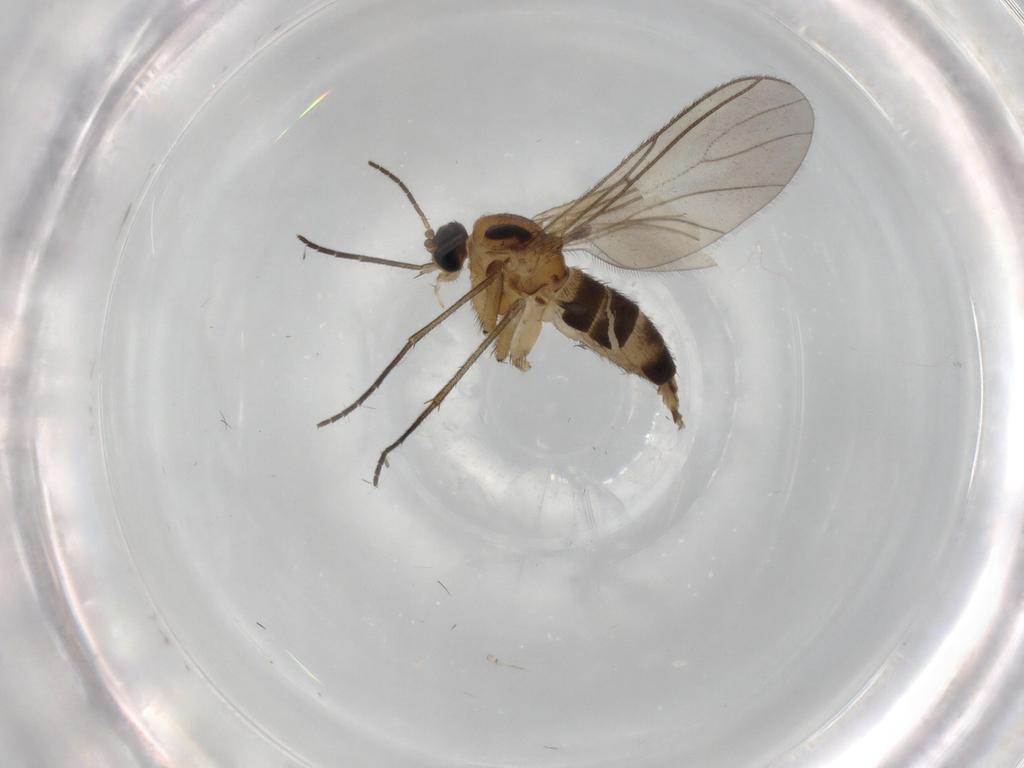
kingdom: Animalia
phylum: Arthropoda
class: Insecta
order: Diptera
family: Sciaridae
